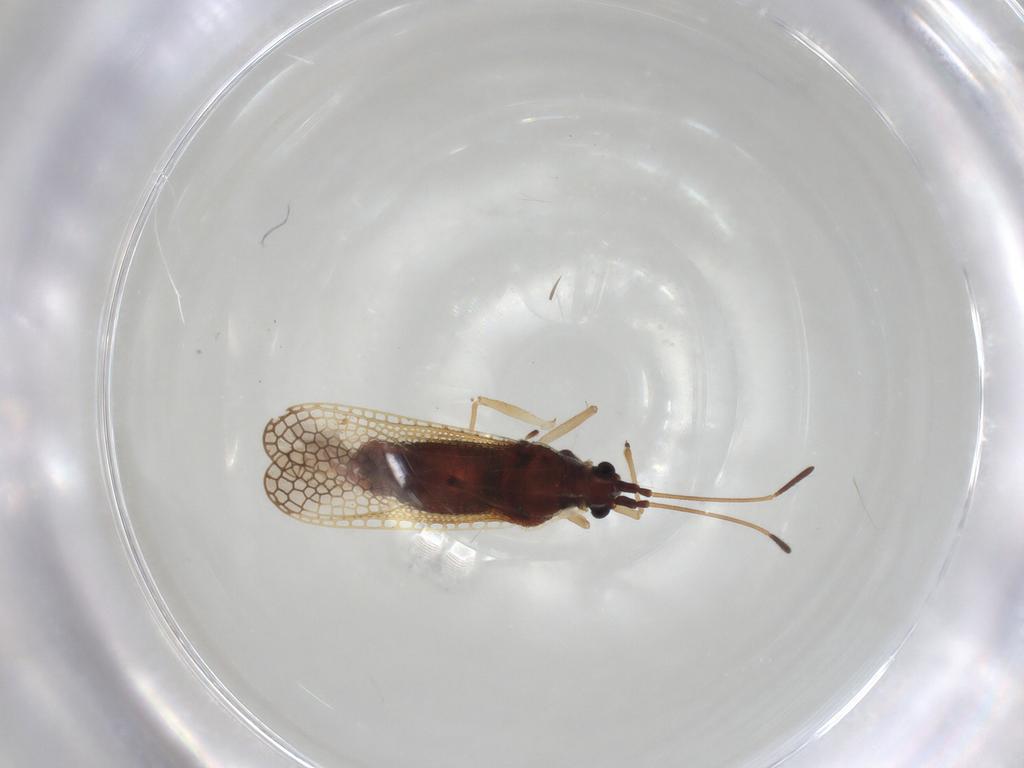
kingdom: Animalia
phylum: Arthropoda
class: Insecta
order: Hemiptera
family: Tingidae
